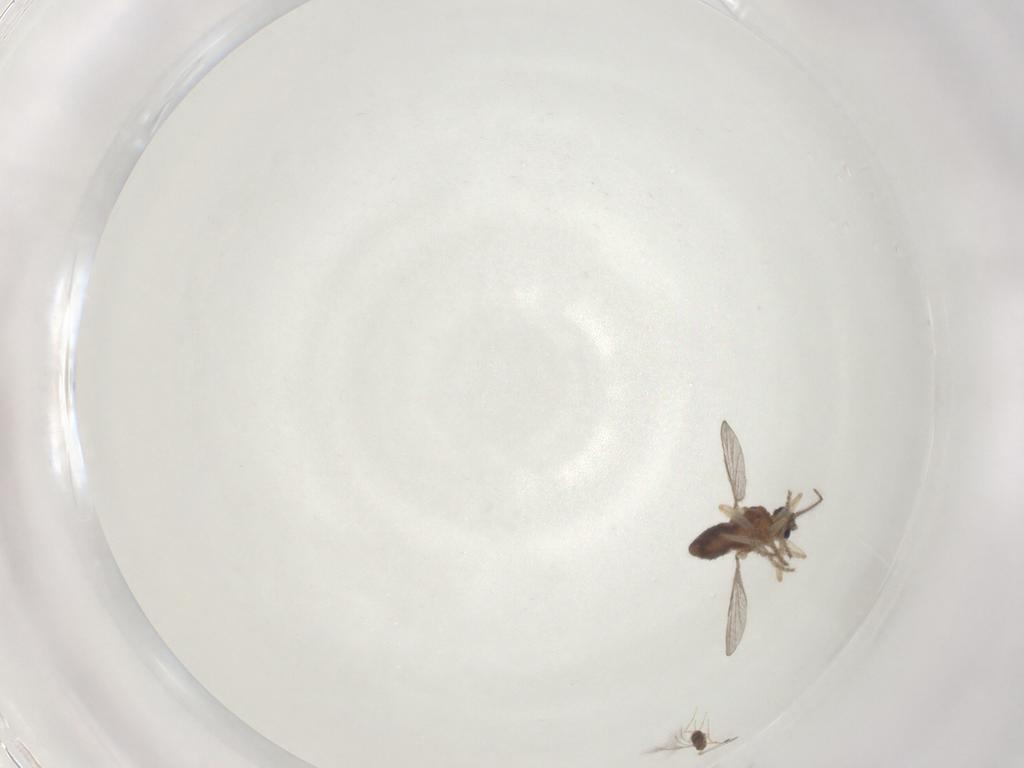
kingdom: Animalia
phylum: Arthropoda
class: Insecta
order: Diptera
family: Ceratopogonidae
